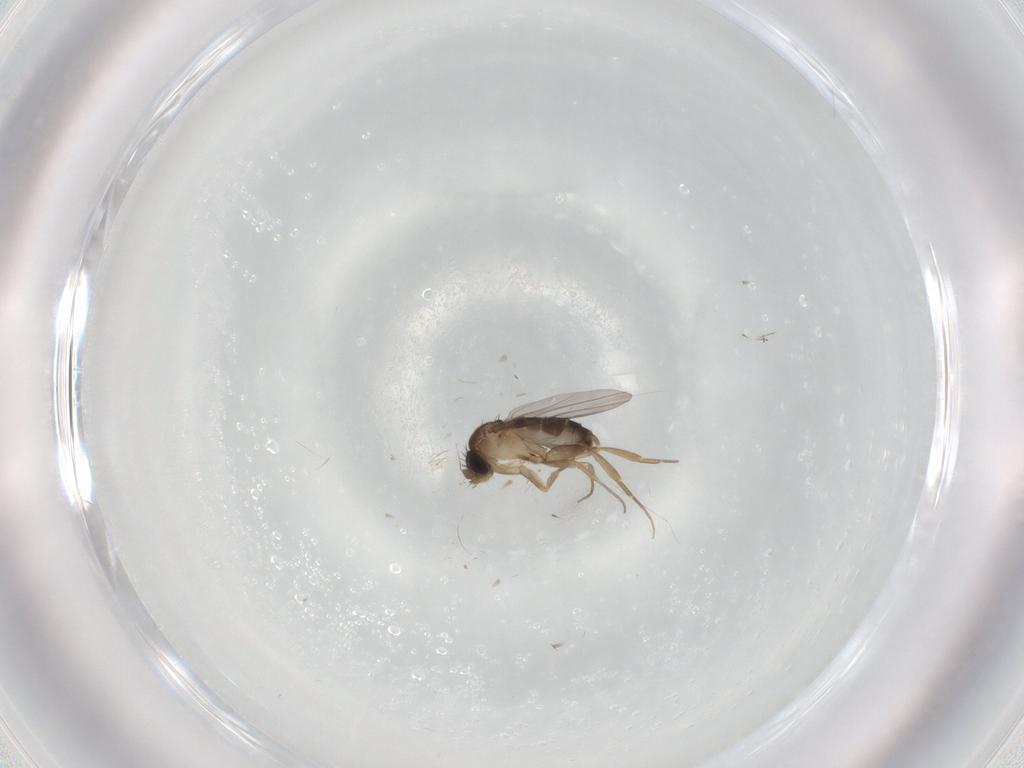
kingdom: Animalia
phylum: Arthropoda
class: Insecta
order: Diptera
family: Phoridae
